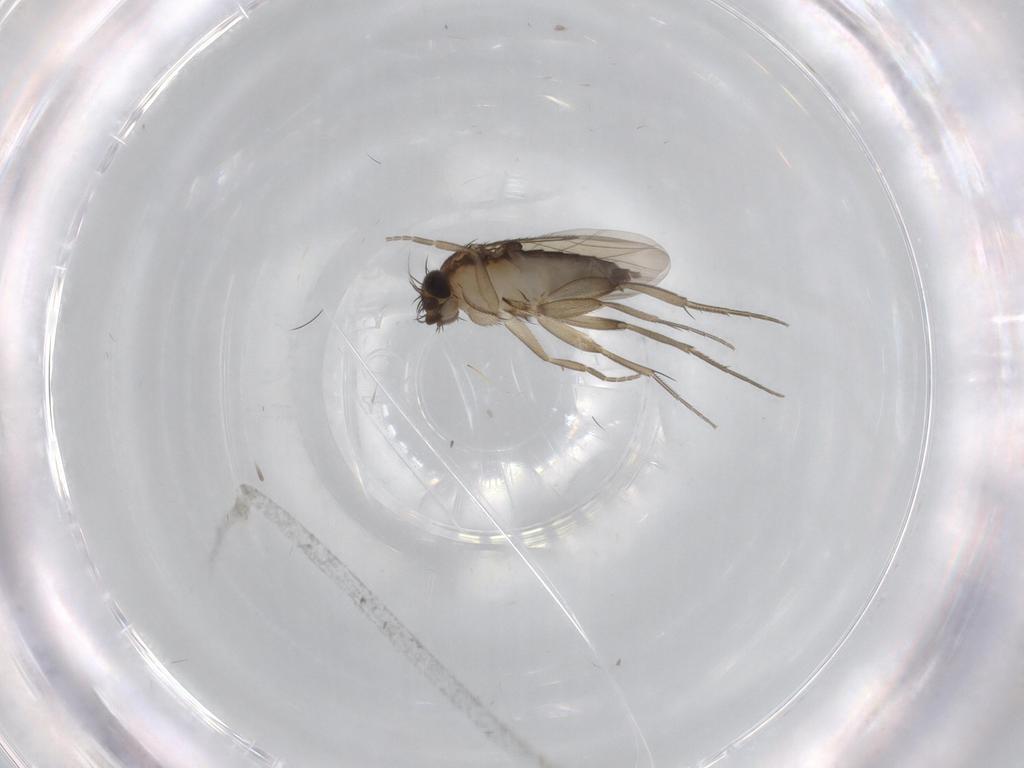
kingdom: Animalia
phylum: Arthropoda
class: Insecta
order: Diptera
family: Phoridae
